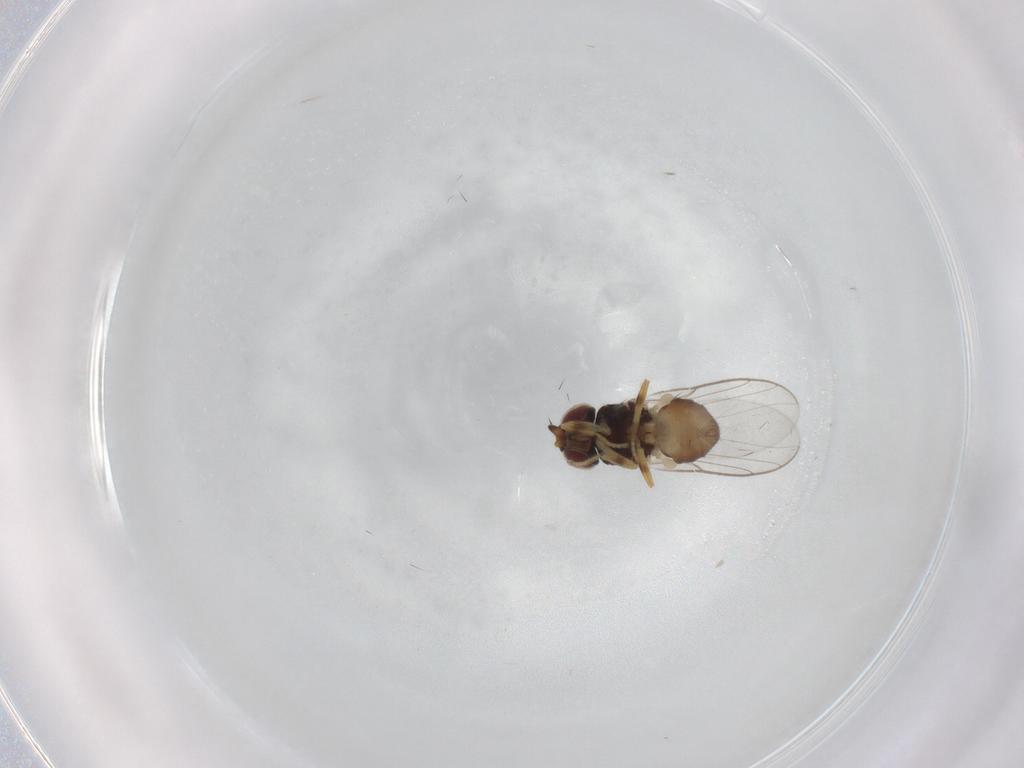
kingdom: Animalia
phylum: Arthropoda
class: Insecta
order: Diptera
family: Chloropidae
